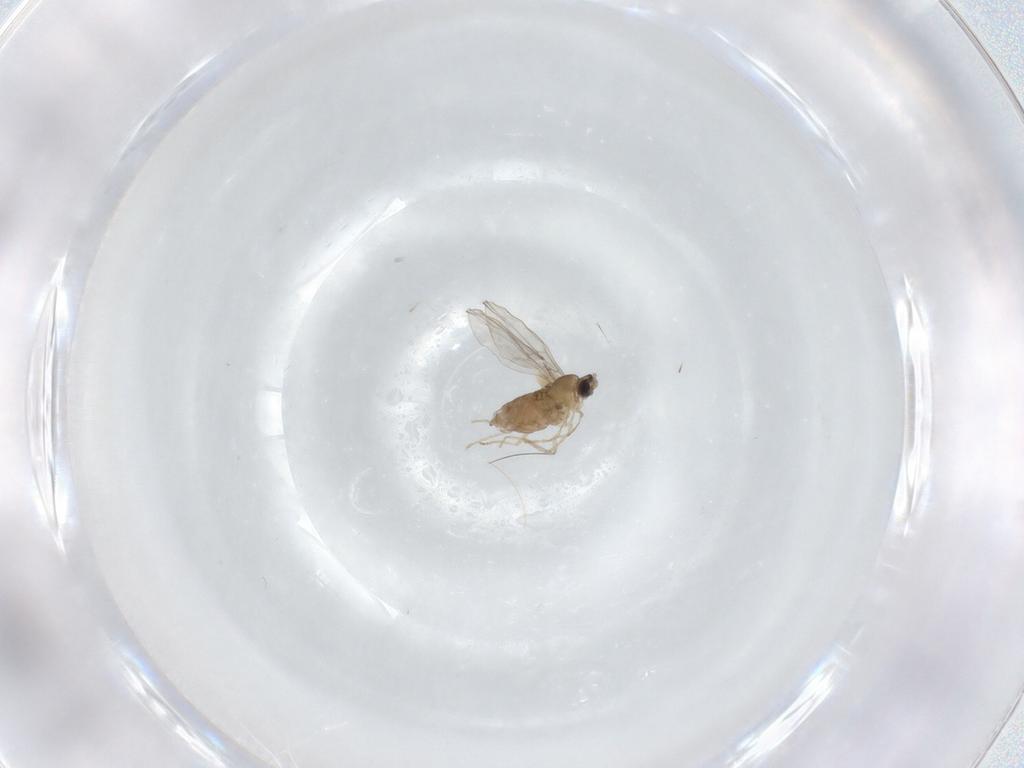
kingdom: Animalia
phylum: Arthropoda
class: Insecta
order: Diptera
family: Cecidomyiidae
